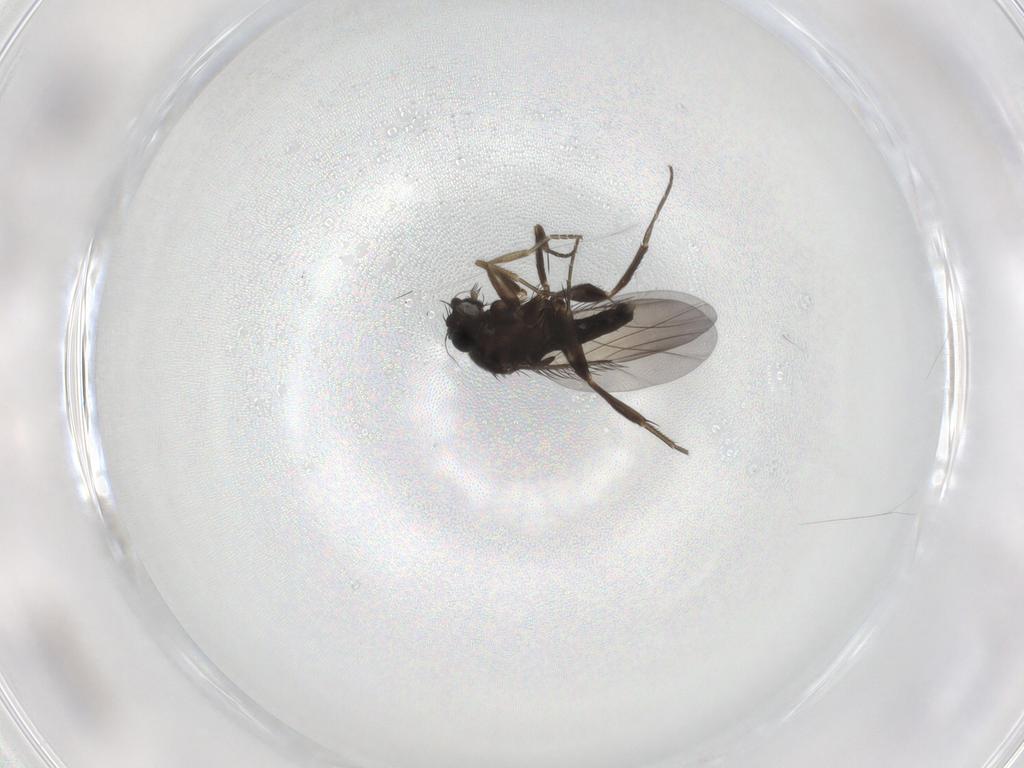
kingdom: Animalia
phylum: Arthropoda
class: Insecta
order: Diptera
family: Phoridae
